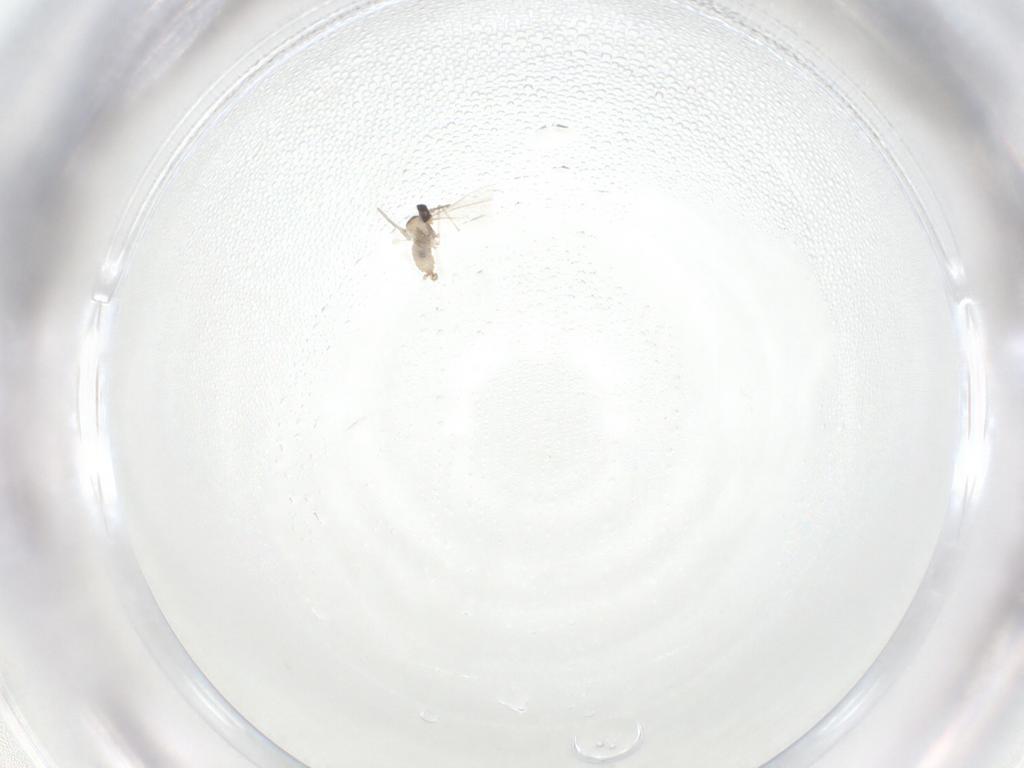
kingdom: Animalia
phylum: Arthropoda
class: Insecta
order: Diptera
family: Cecidomyiidae
